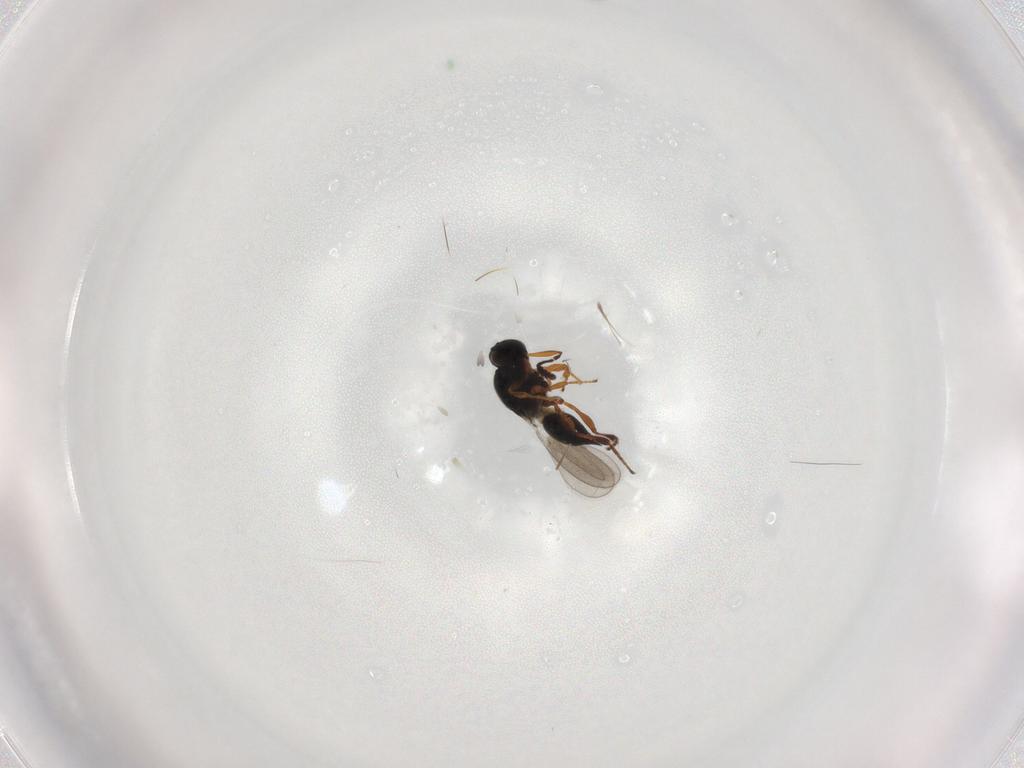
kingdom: Animalia
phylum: Arthropoda
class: Insecta
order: Hymenoptera
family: Platygastridae
